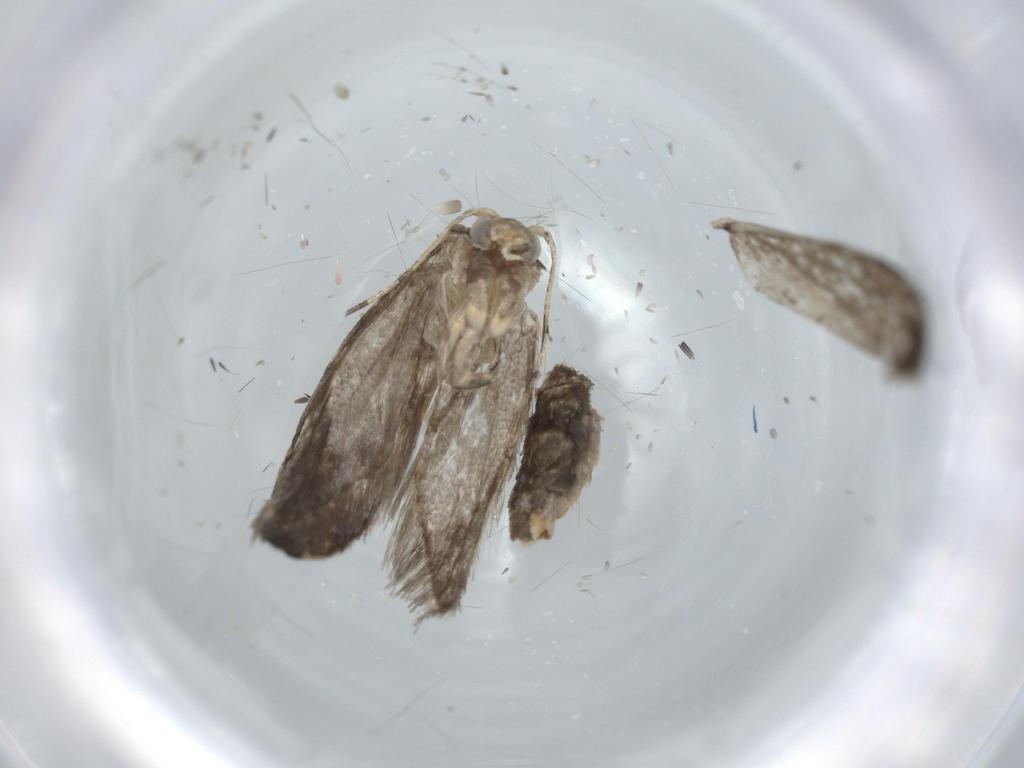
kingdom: Animalia
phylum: Arthropoda
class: Insecta
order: Lepidoptera
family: Tineidae
